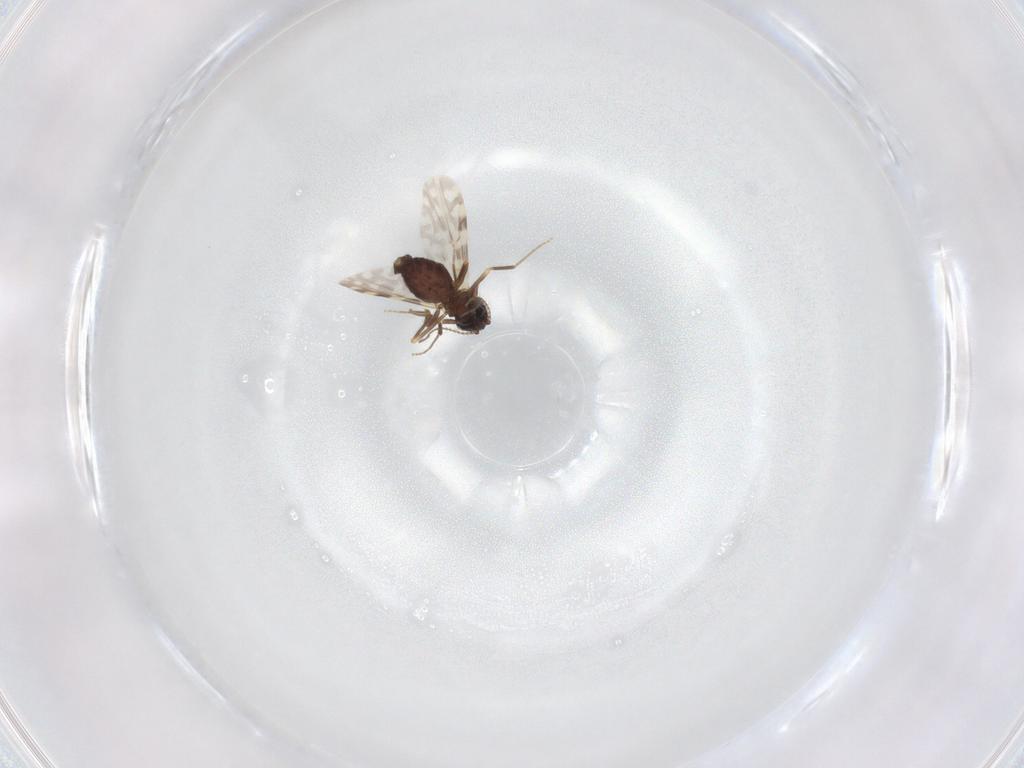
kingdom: Animalia
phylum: Arthropoda
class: Insecta
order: Diptera
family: Ceratopogonidae
